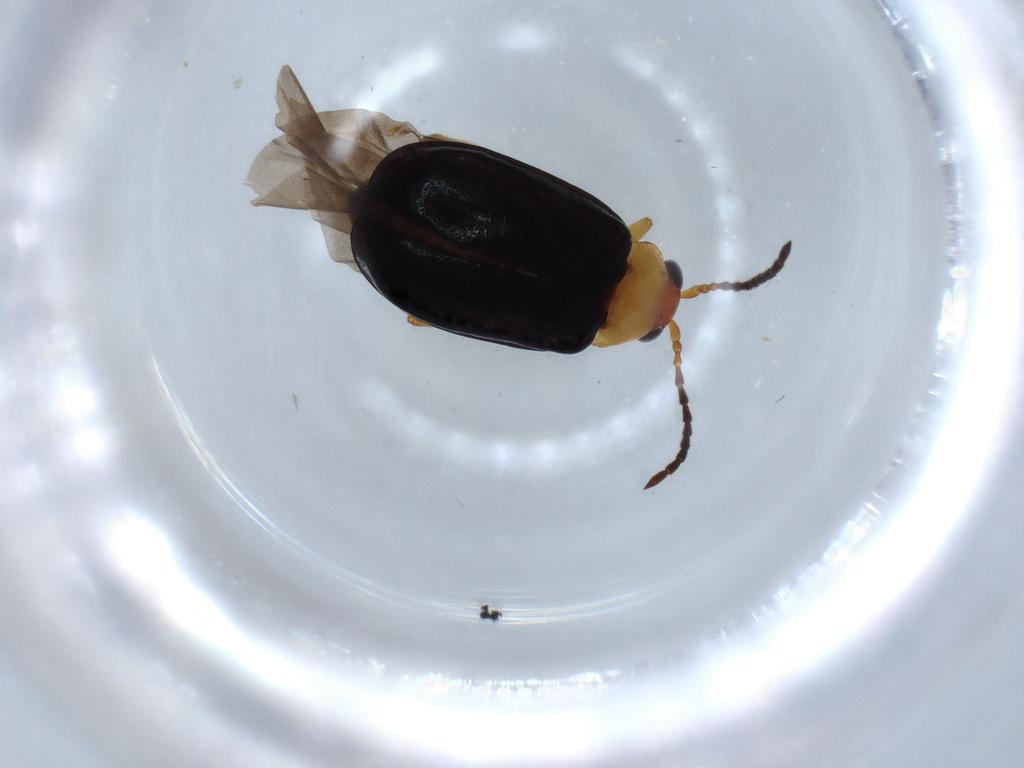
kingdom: Animalia
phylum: Arthropoda
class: Insecta
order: Coleoptera
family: Chrysomelidae
